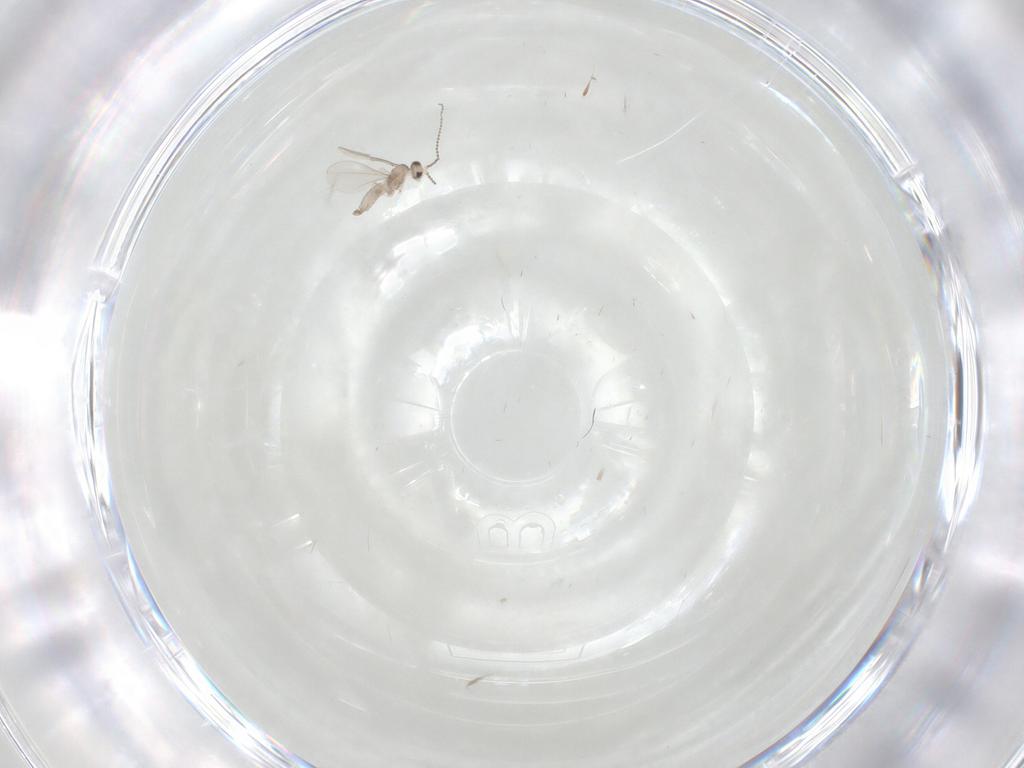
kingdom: Animalia
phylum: Arthropoda
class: Insecta
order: Diptera
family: Cecidomyiidae
